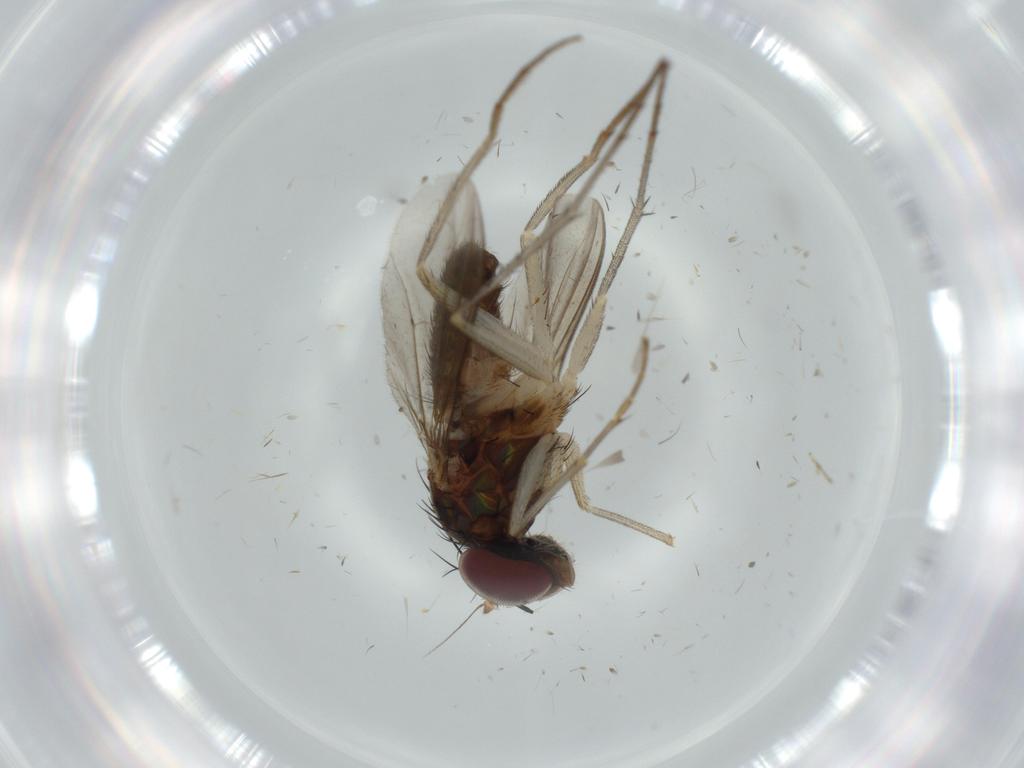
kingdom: Animalia
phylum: Arthropoda
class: Insecta
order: Diptera
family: Dolichopodidae
